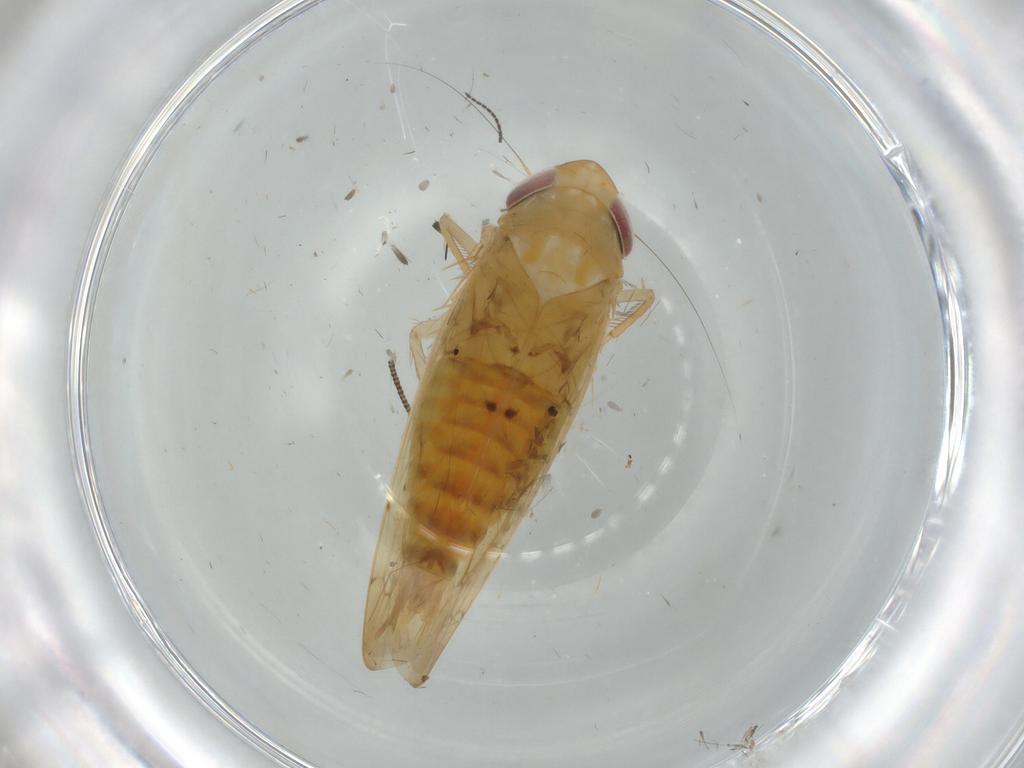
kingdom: Animalia
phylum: Arthropoda
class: Insecta
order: Hemiptera
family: Cicadellidae
